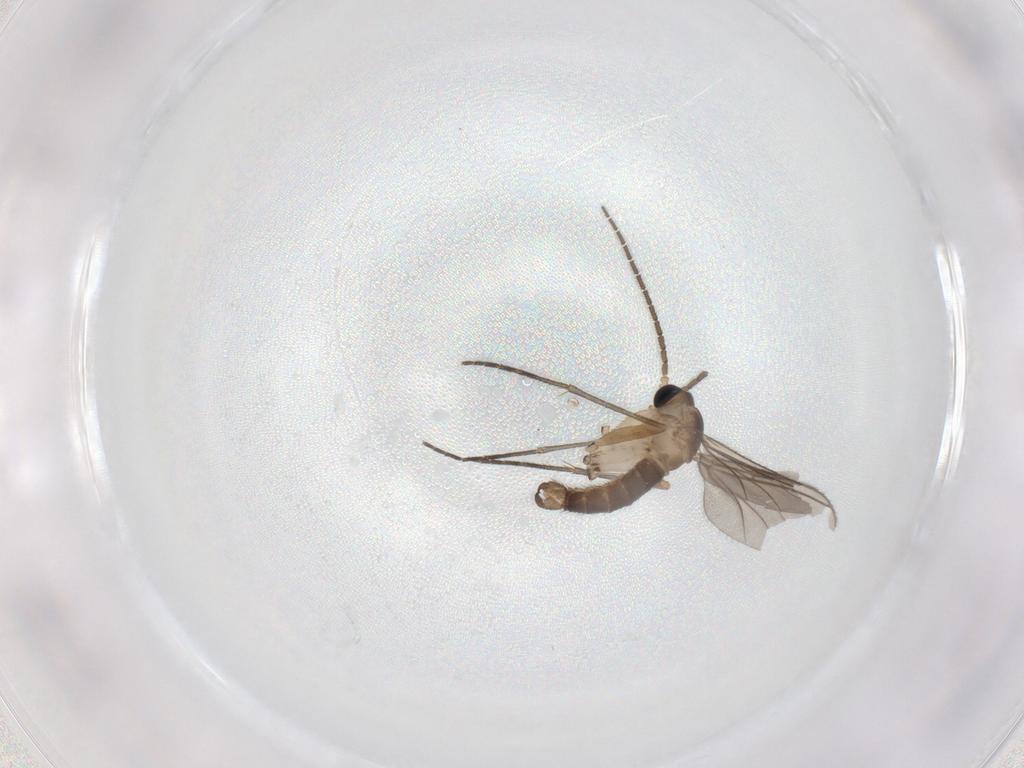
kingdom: Animalia
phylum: Arthropoda
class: Insecta
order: Diptera
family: Sciaridae
